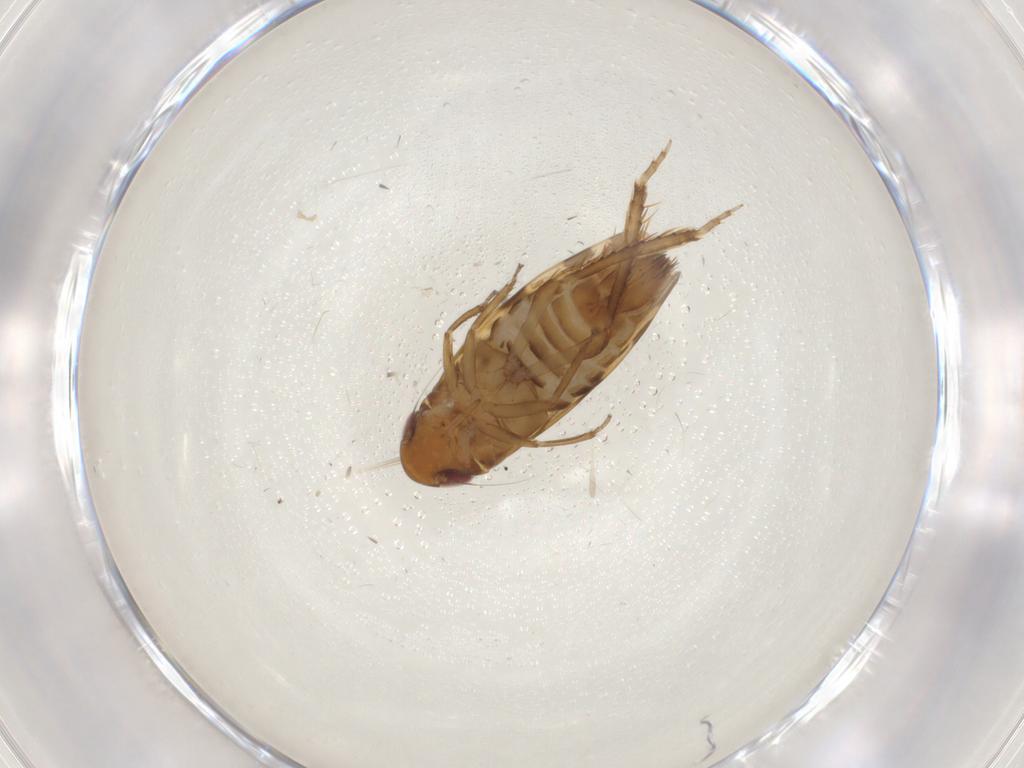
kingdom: Animalia
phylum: Arthropoda
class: Insecta
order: Hemiptera
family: Cicadellidae
